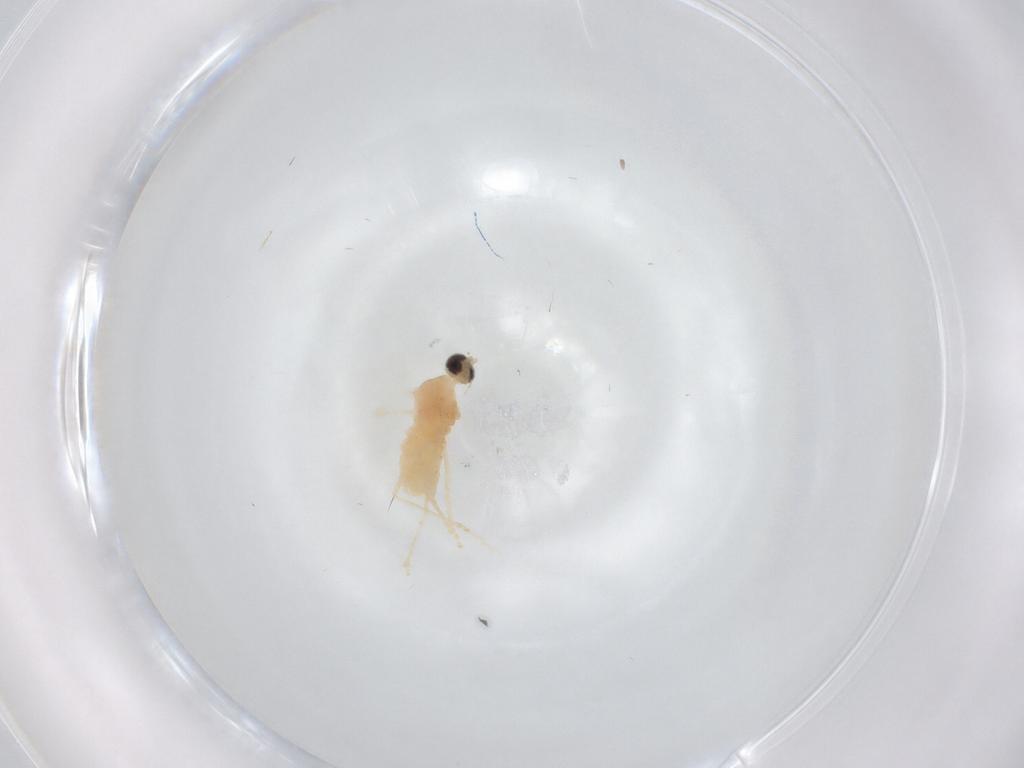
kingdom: Animalia
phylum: Arthropoda
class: Insecta
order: Diptera
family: Cecidomyiidae
